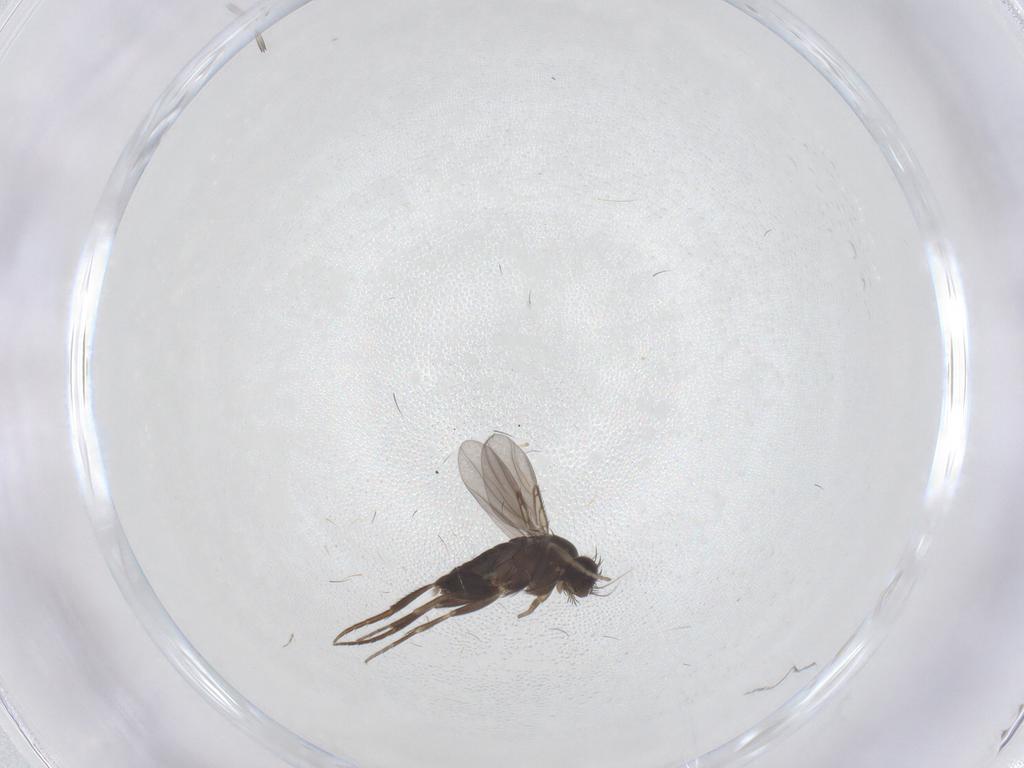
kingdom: Animalia
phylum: Arthropoda
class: Insecta
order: Diptera
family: Chironomidae
